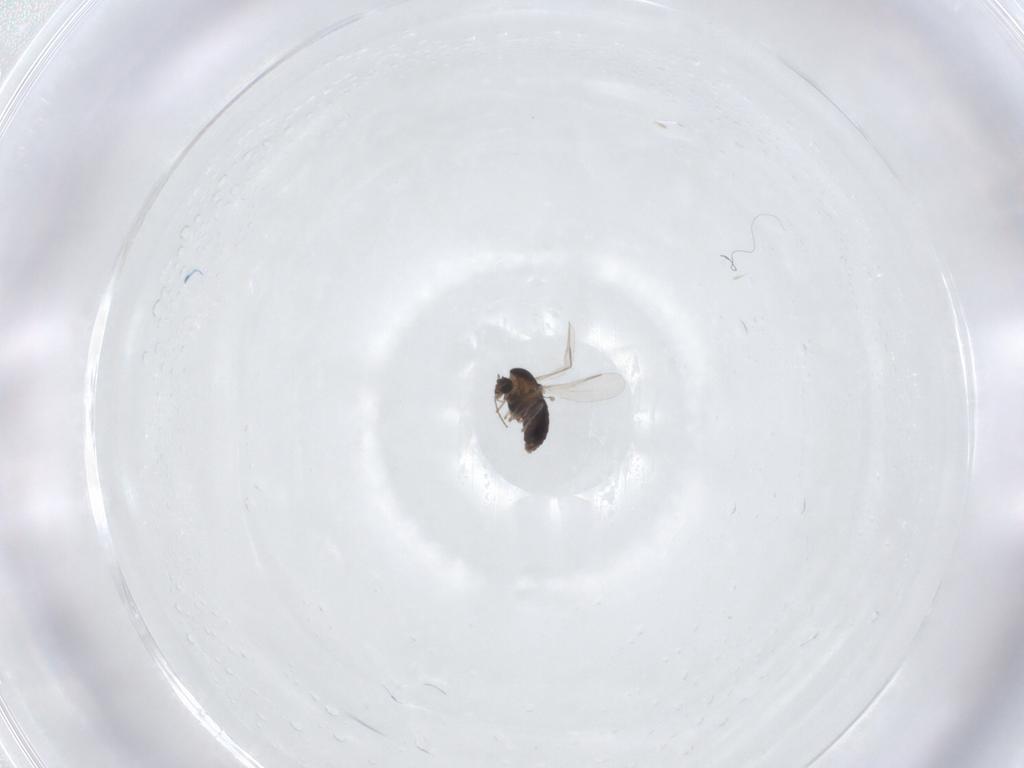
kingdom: Animalia
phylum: Arthropoda
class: Insecta
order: Diptera
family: Chironomidae
